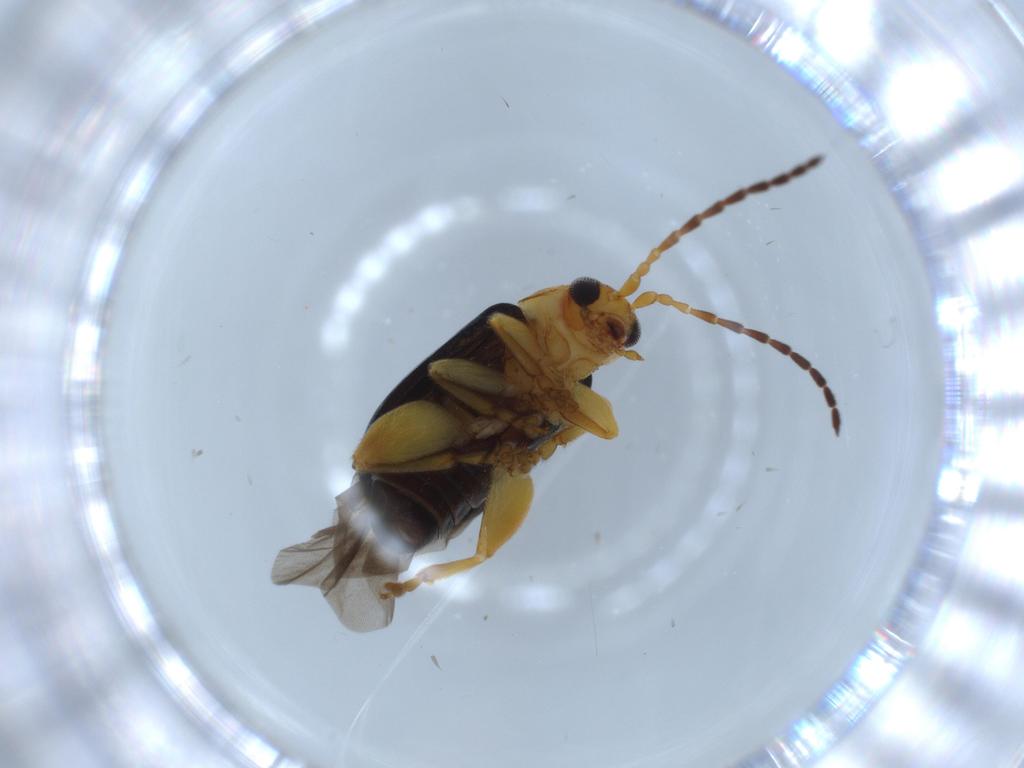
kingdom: Animalia
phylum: Arthropoda
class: Insecta
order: Coleoptera
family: Chrysomelidae
